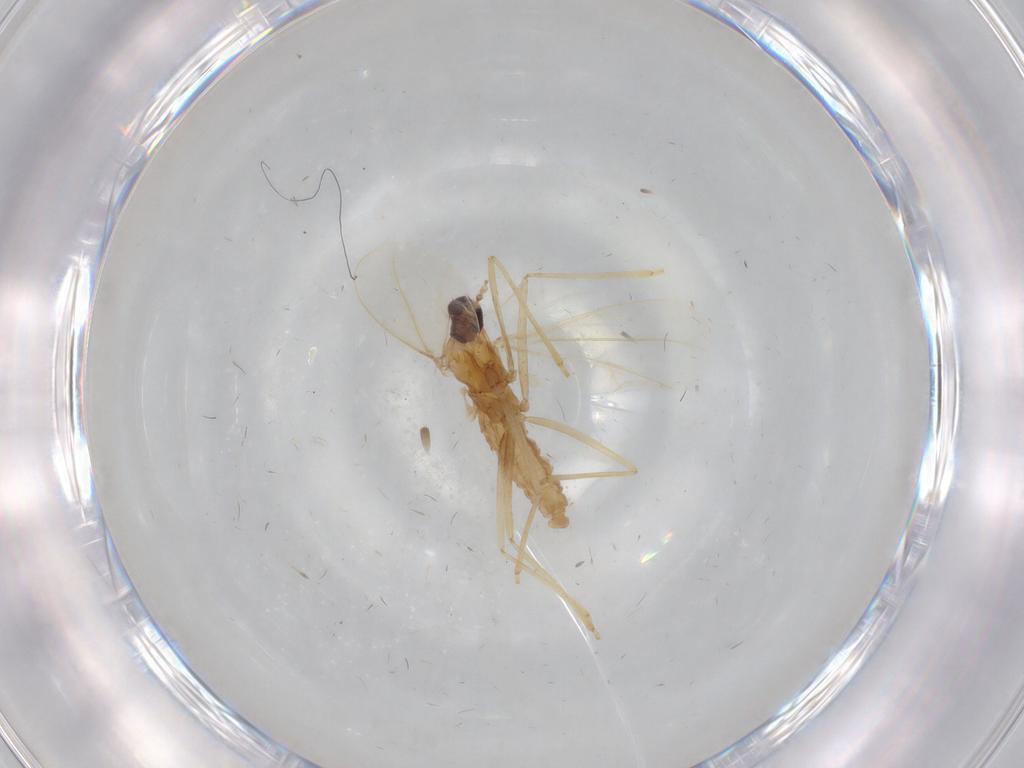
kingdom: Animalia
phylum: Arthropoda
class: Insecta
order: Diptera
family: Sciaridae
